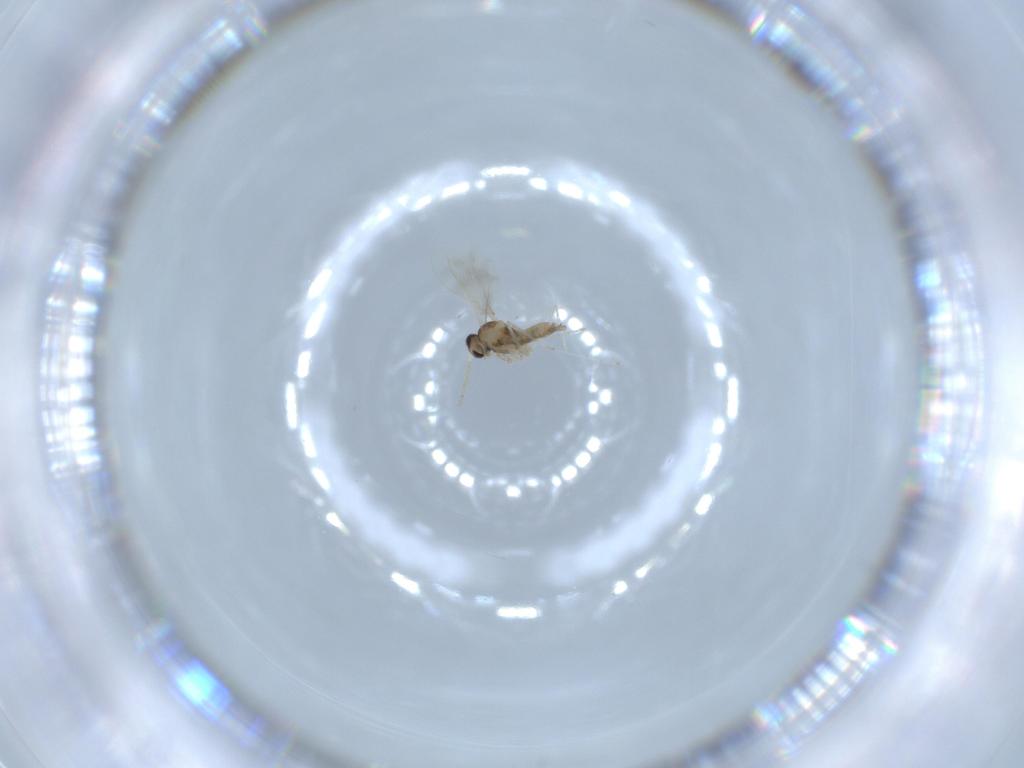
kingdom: Animalia
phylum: Arthropoda
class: Insecta
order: Diptera
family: Cecidomyiidae
